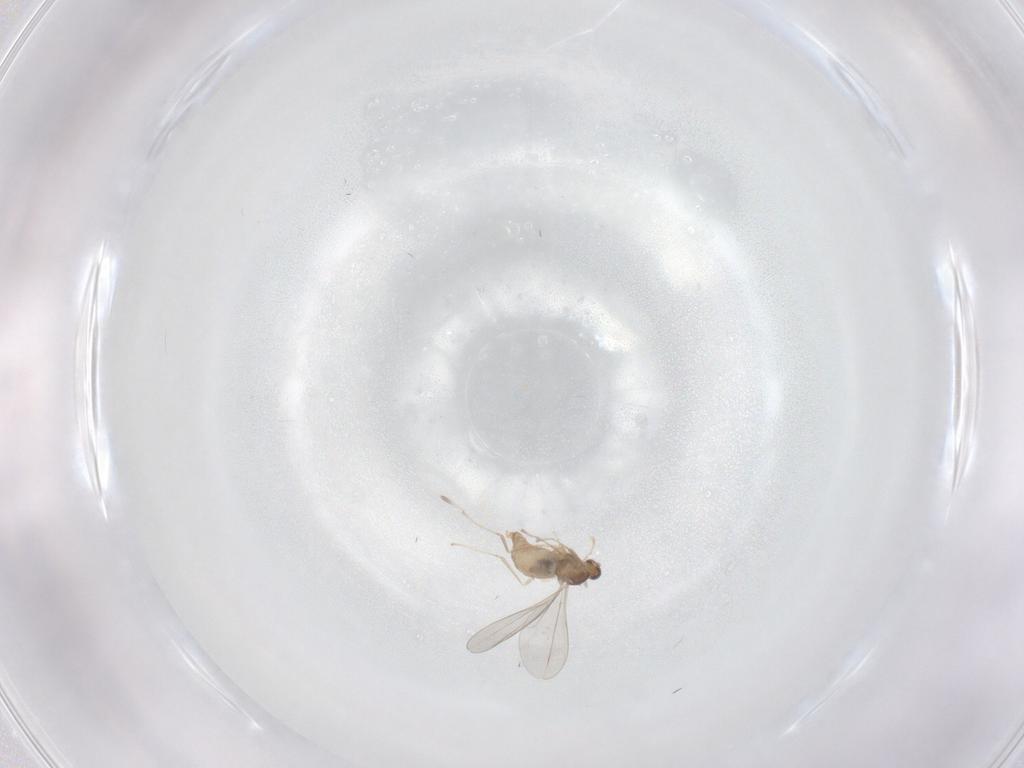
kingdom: Animalia
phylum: Arthropoda
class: Insecta
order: Diptera
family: Cecidomyiidae
